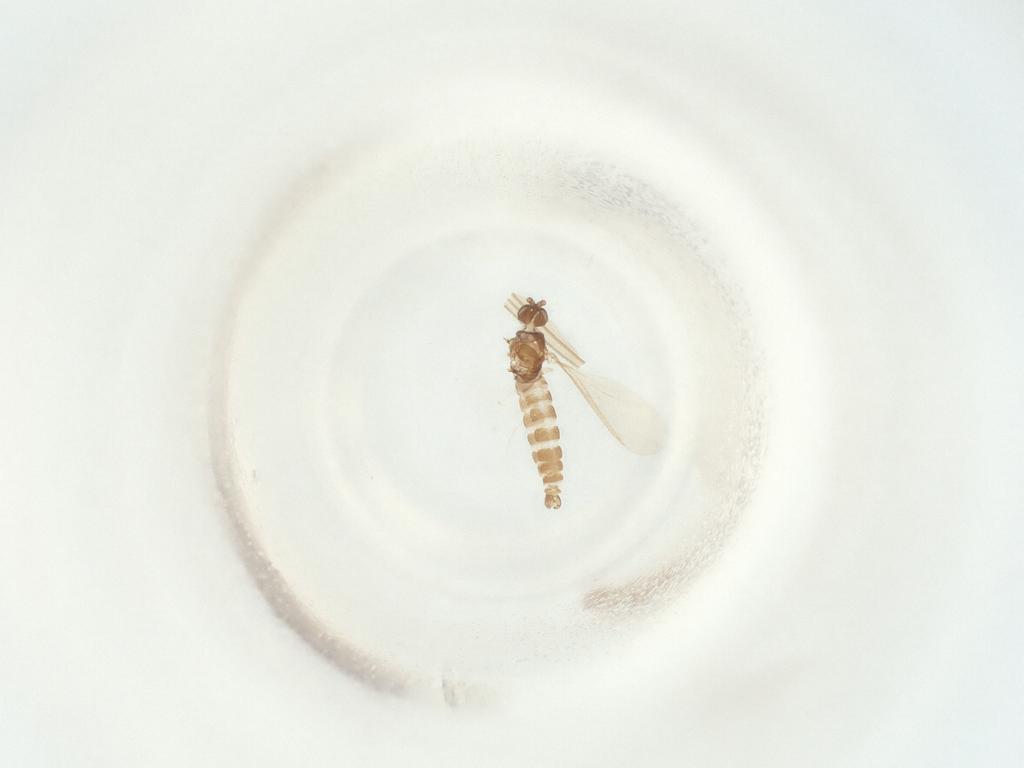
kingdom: Animalia
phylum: Arthropoda
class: Insecta
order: Diptera
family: Sciaridae
